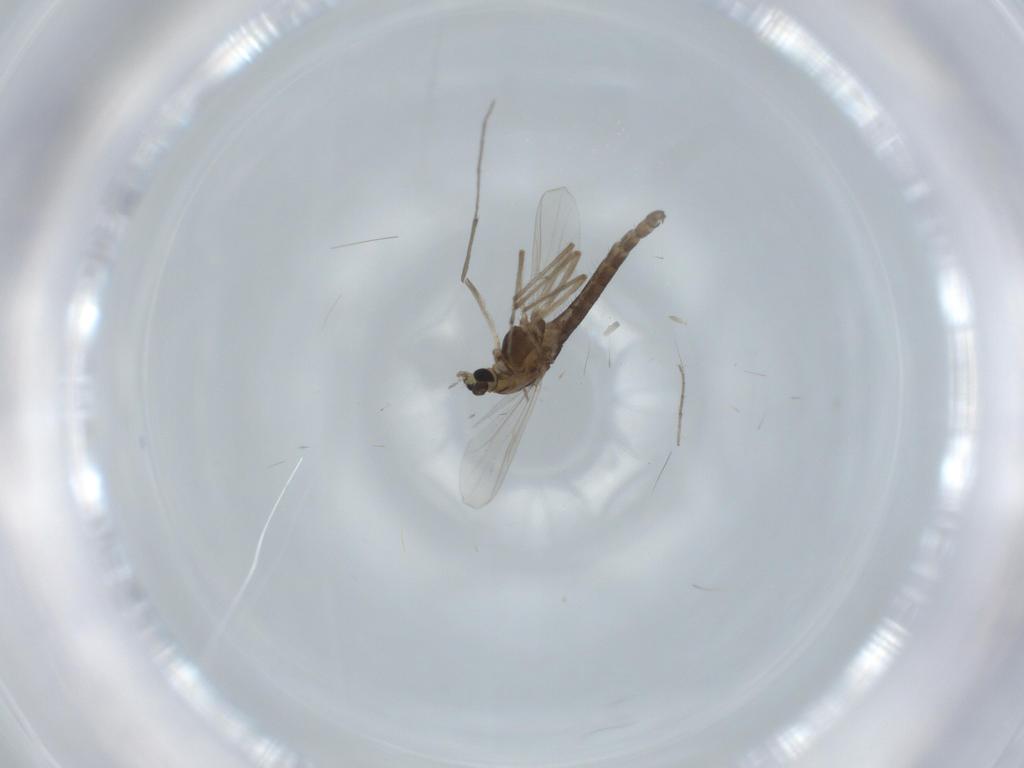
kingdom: Animalia
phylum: Arthropoda
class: Insecta
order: Diptera
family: Chironomidae
